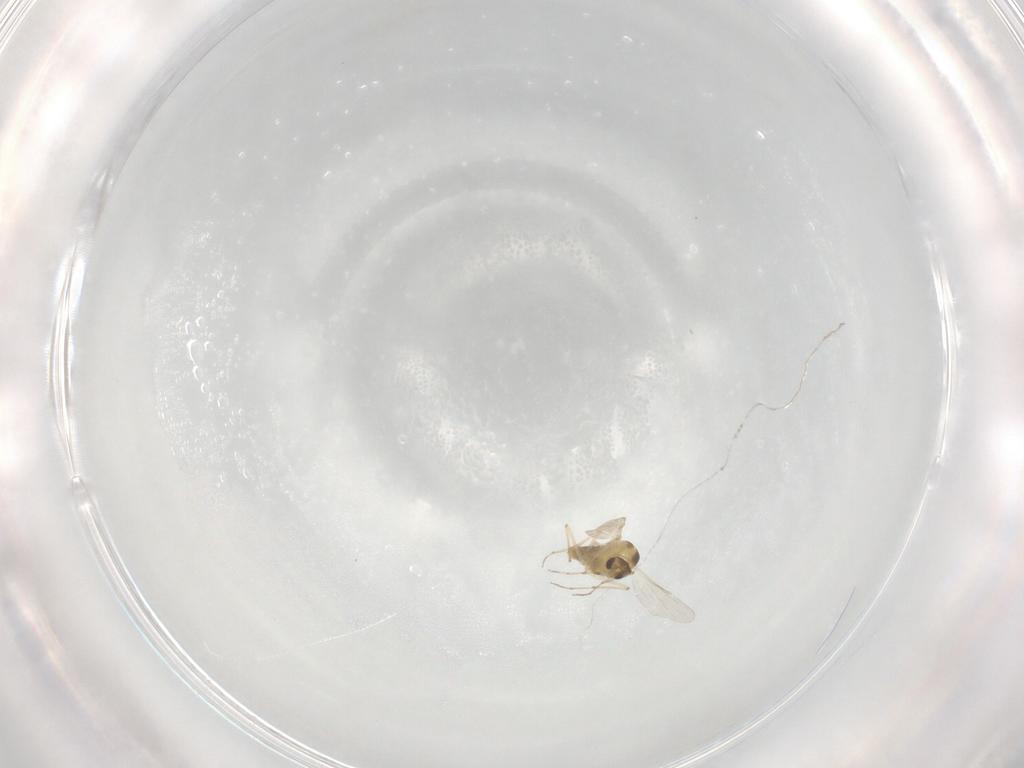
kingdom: Animalia
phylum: Arthropoda
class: Insecta
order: Diptera
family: Chironomidae
